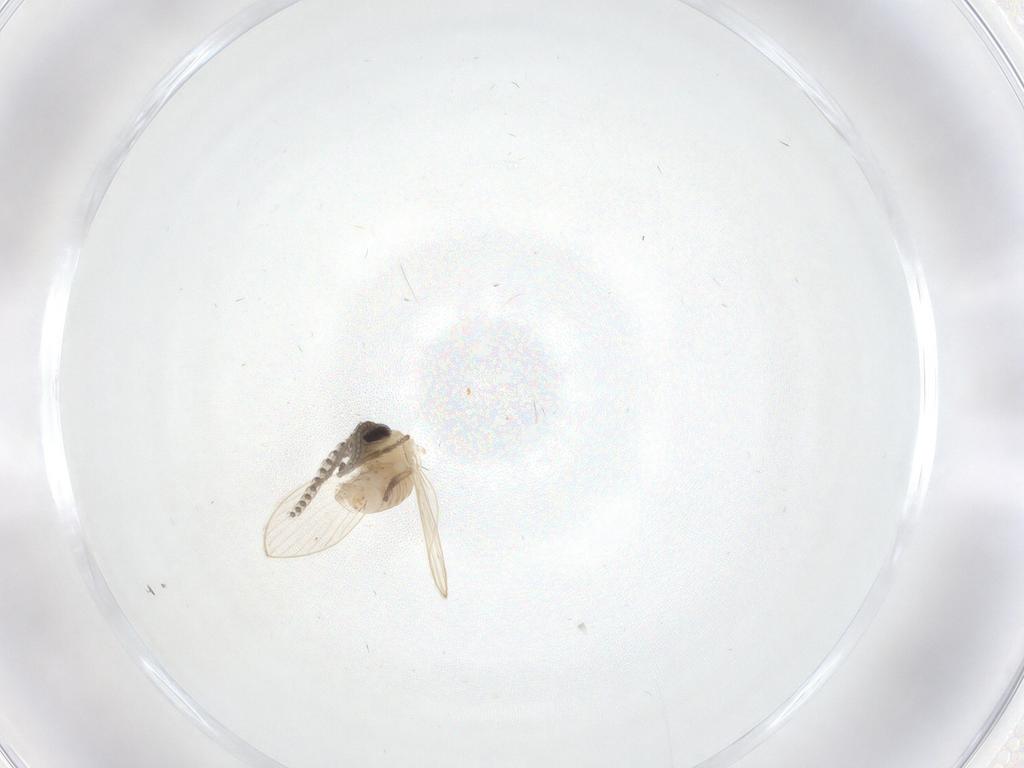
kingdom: Animalia
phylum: Arthropoda
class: Insecta
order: Diptera
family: Psychodidae
